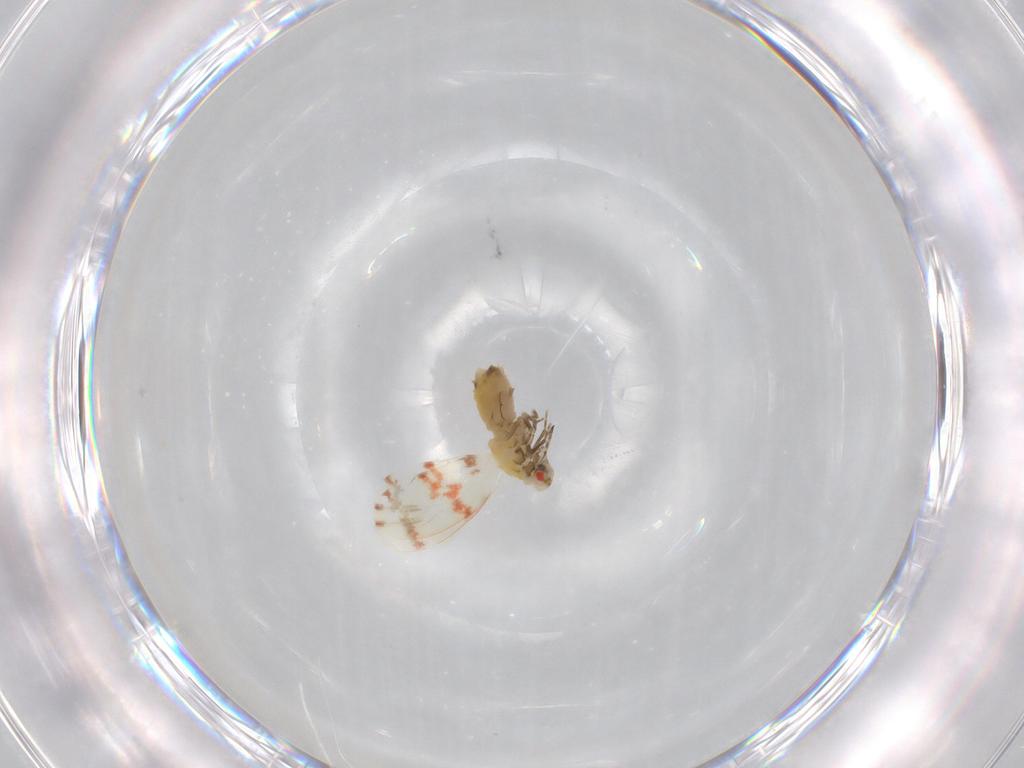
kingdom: Animalia
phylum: Arthropoda
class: Insecta
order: Hemiptera
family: Aleyrodidae
